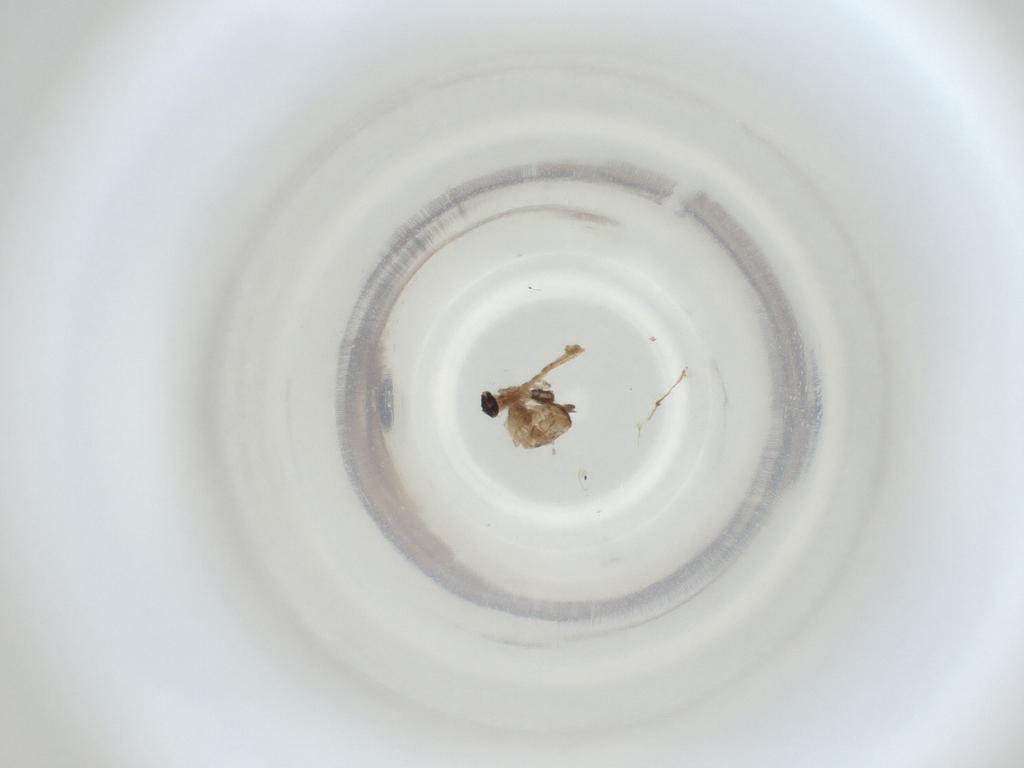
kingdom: Animalia
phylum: Arthropoda
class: Insecta
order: Diptera
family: Cecidomyiidae
